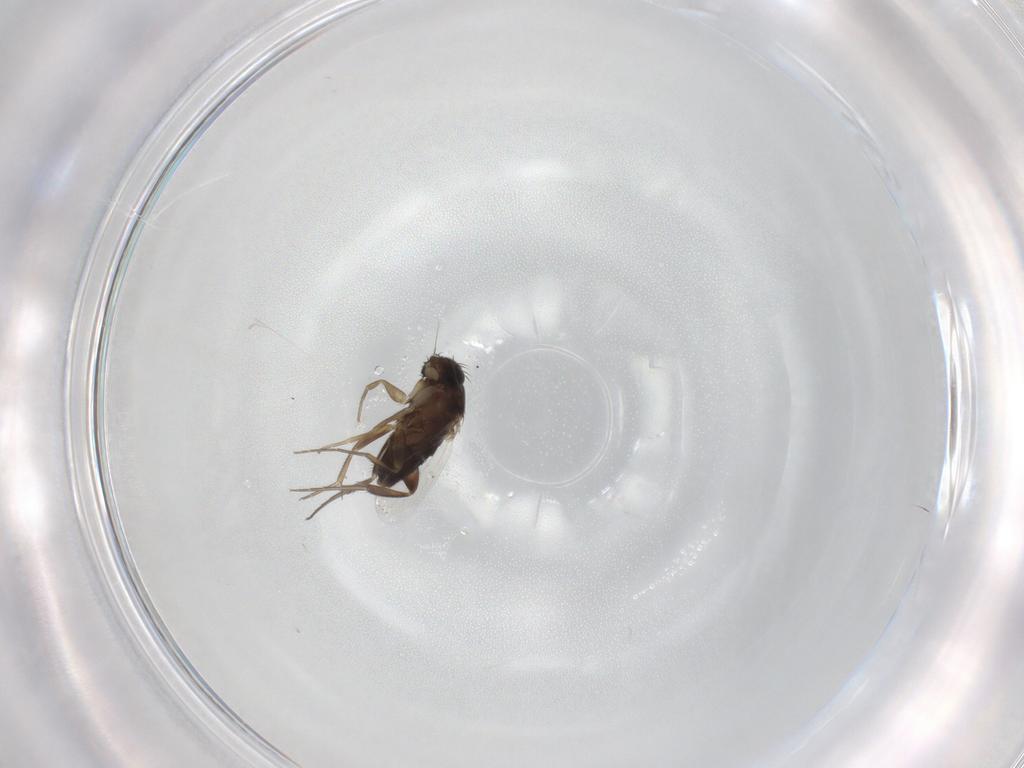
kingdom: Animalia
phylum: Arthropoda
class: Insecta
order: Diptera
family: Phoridae
